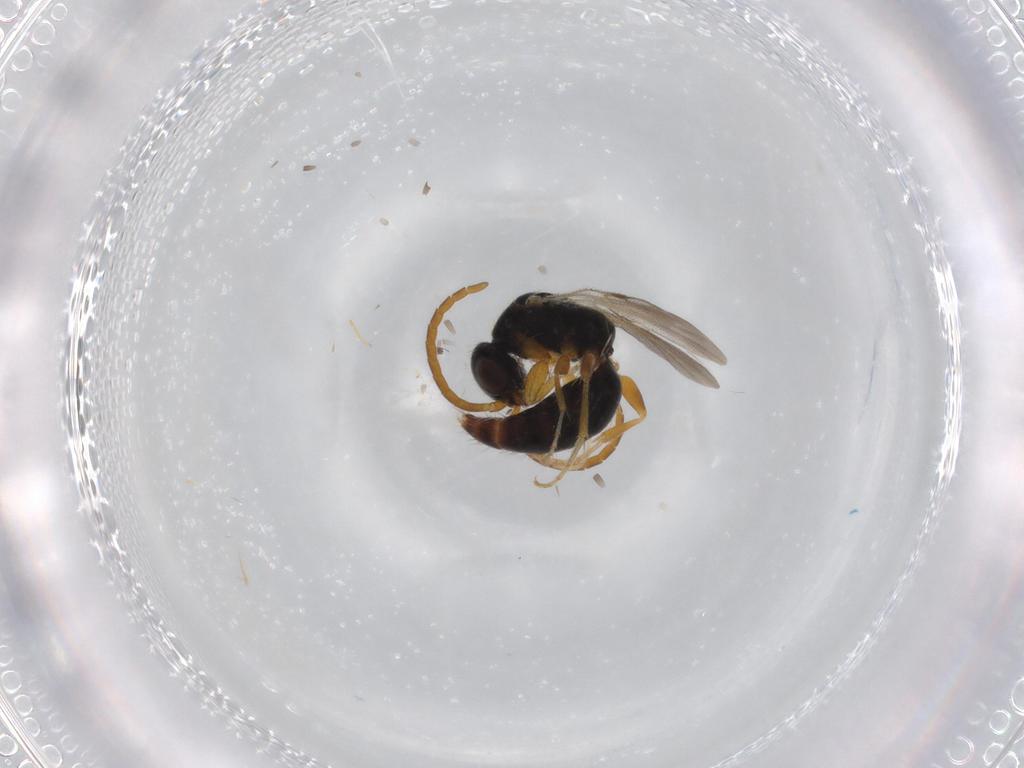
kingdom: Animalia
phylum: Arthropoda
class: Insecta
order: Hymenoptera
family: Bethylidae
